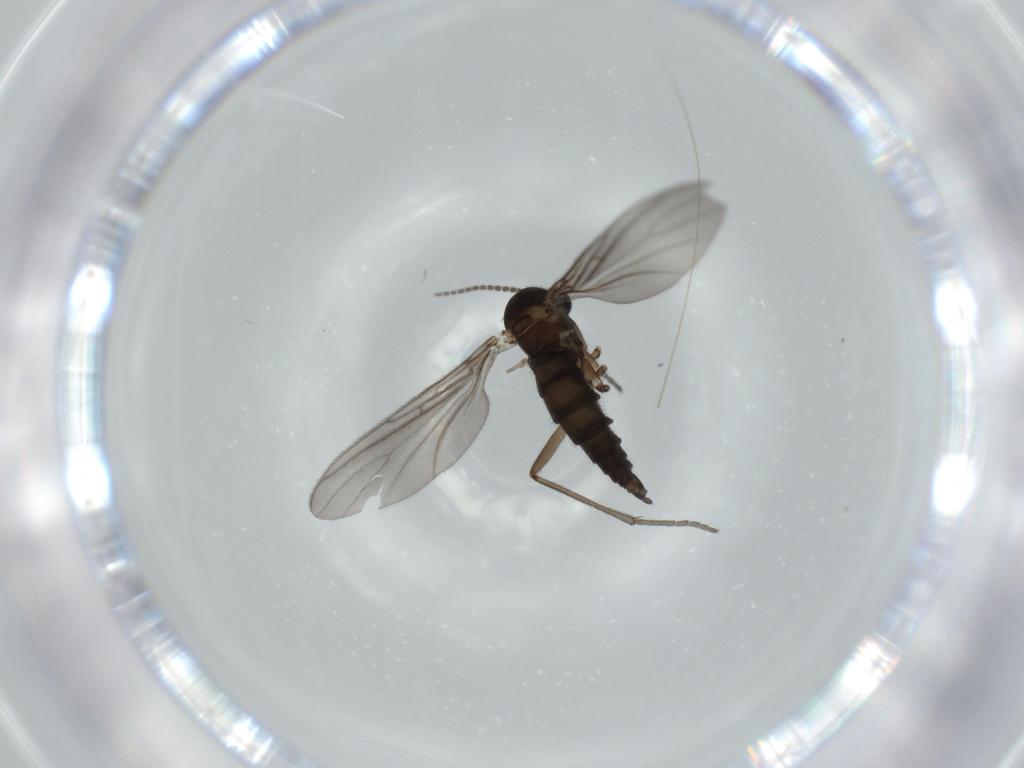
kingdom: Animalia
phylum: Arthropoda
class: Insecta
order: Diptera
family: Sciaridae
